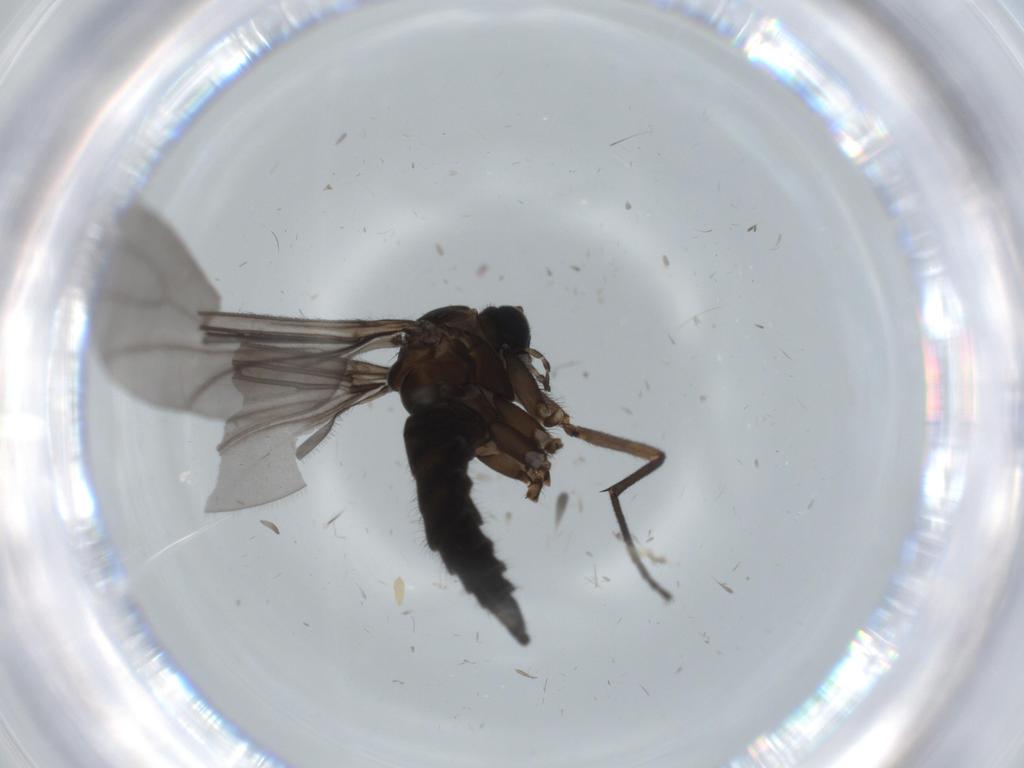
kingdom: Animalia
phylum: Arthropoda
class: Insecta
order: Diptera
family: Sciaridae
